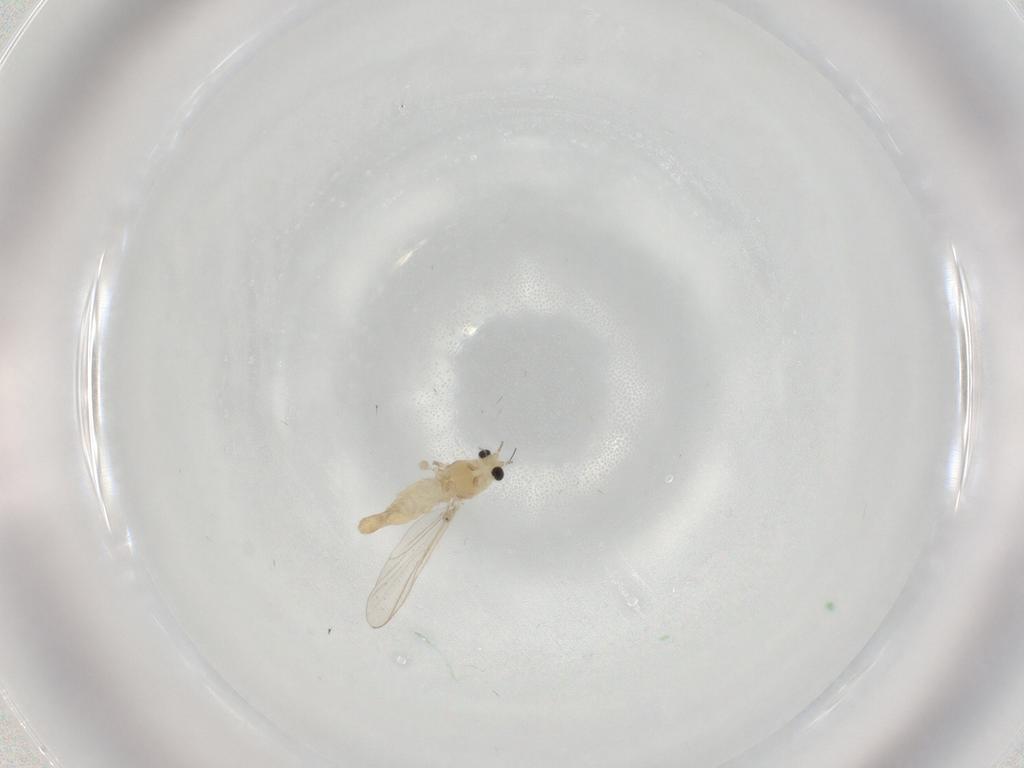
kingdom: Animalia
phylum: Arthropoda
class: Insecta
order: Diptera
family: Chironomidae
